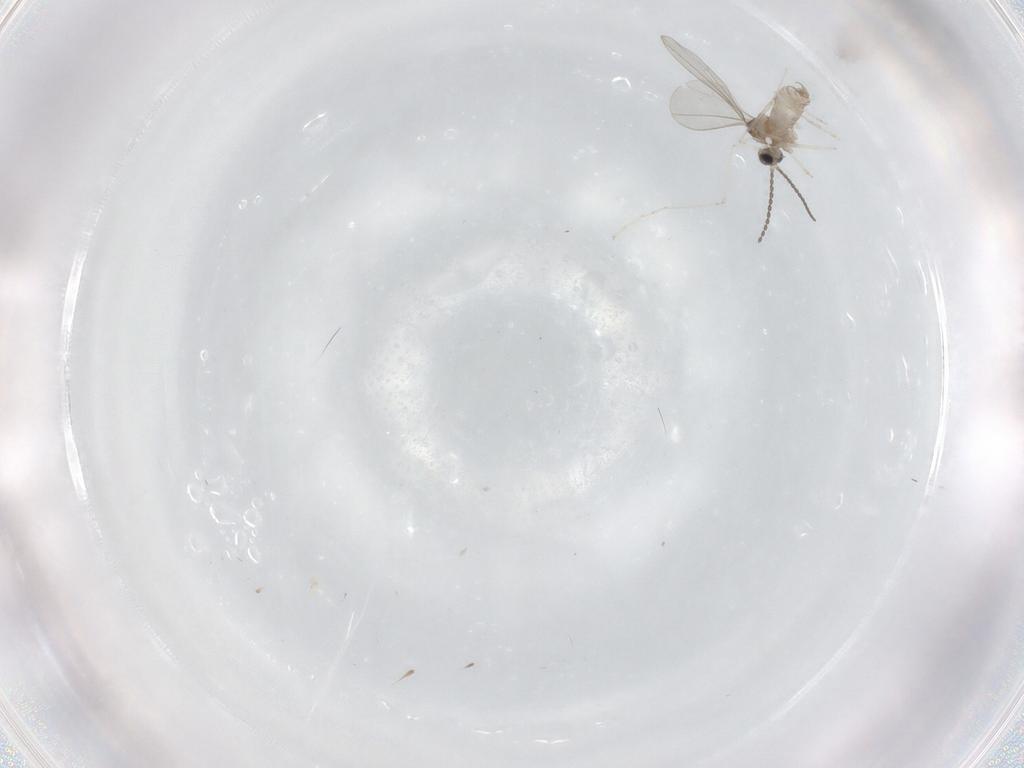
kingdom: Animalia
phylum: Arthropoda
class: Insecta
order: Diptera
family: Cecidomyiidae
